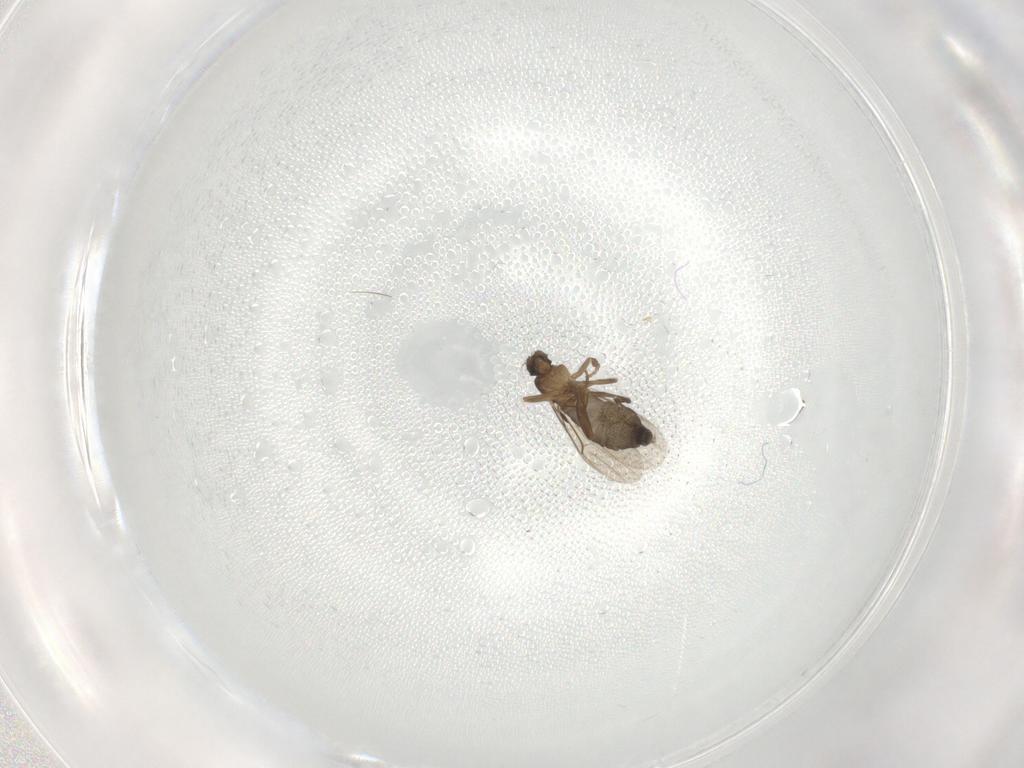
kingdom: Animalia
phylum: Arthropoda
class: Insecta
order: Diptera
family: Phoridae
